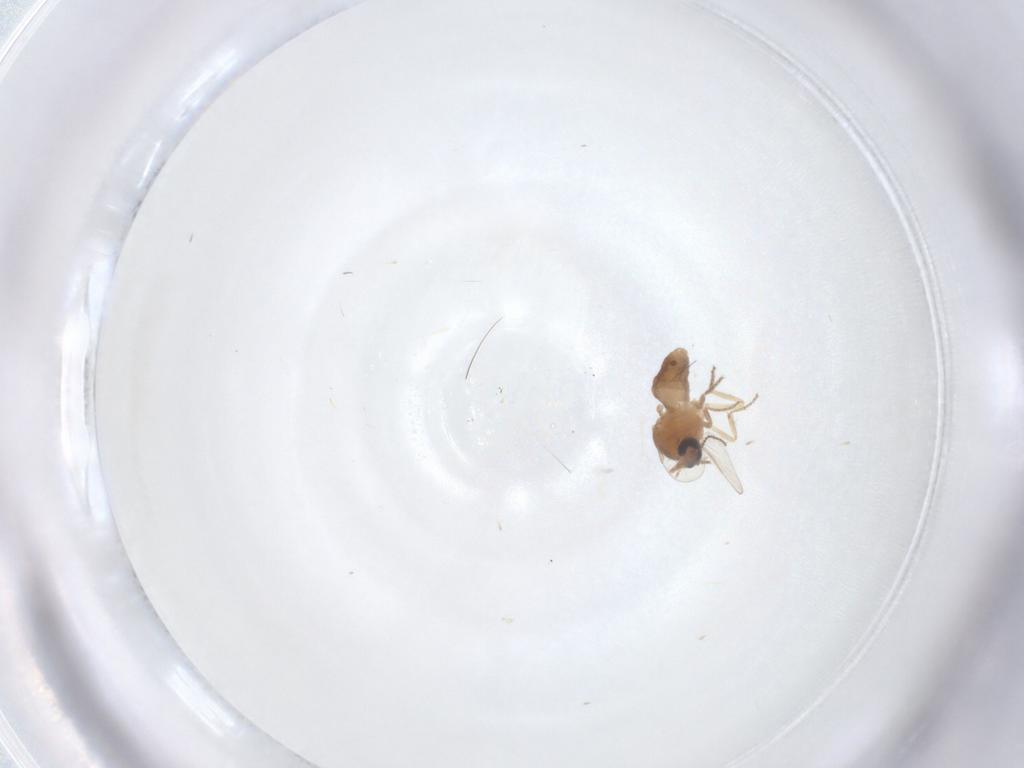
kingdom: Animalia
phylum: Arthropoda
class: Insecta
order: Diptera
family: Ceratopogonidae
